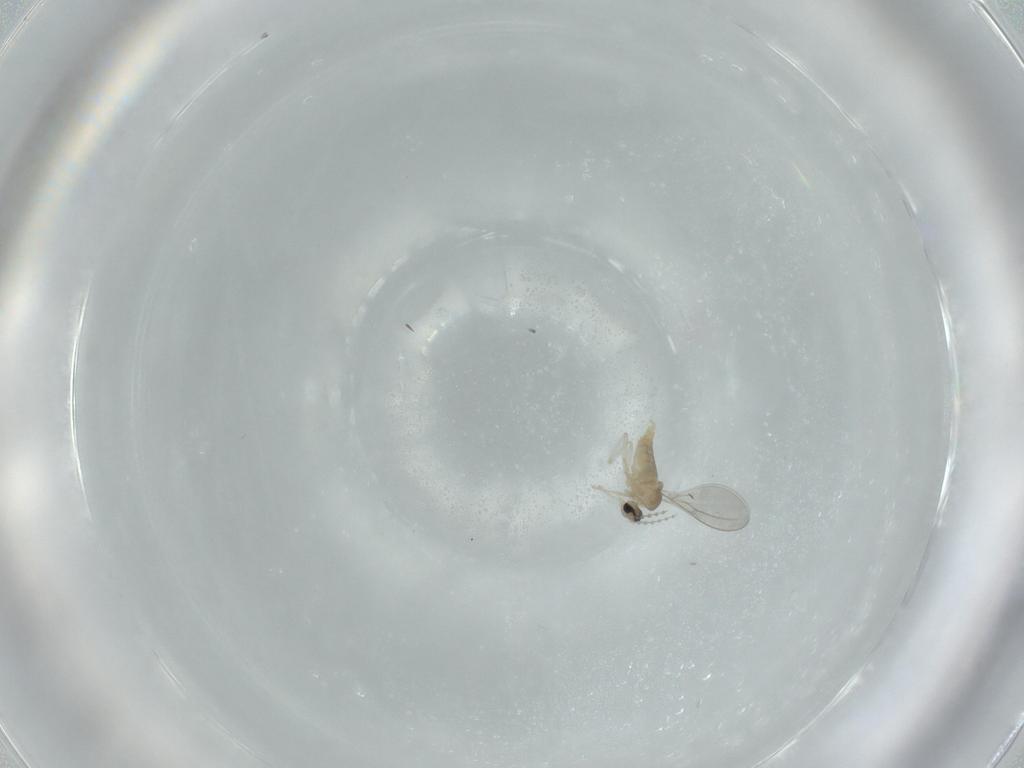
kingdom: Animalia
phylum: Arthropoda
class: Insecta
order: Diptera
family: Cecidomyiidae
